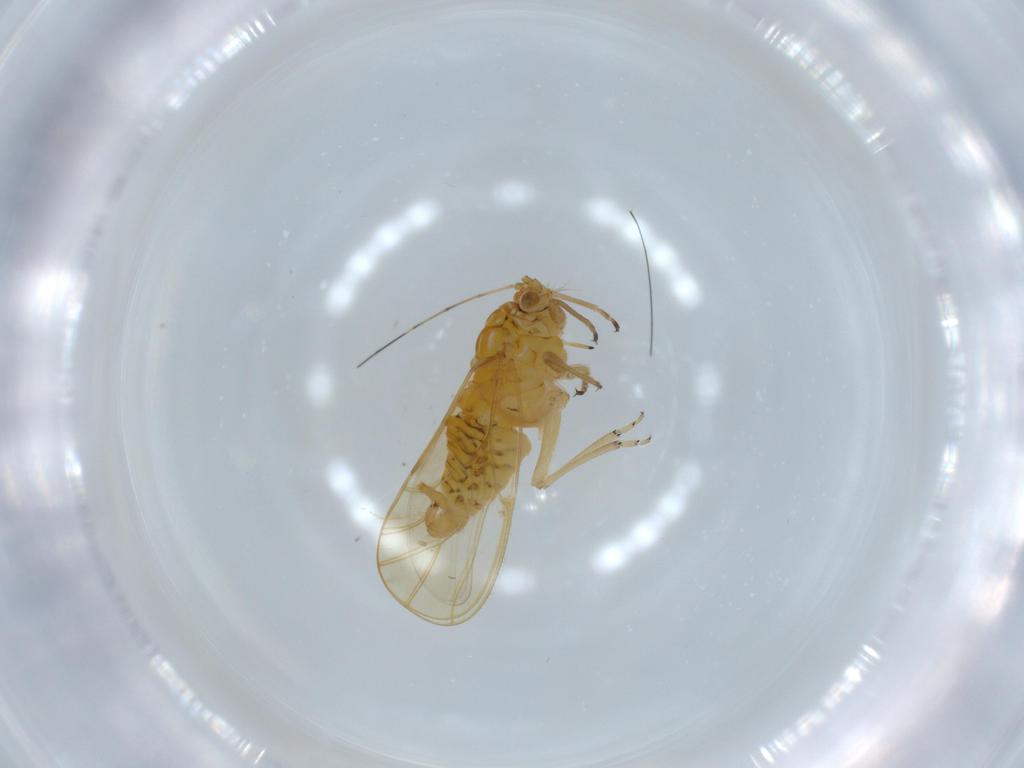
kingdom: Animalia
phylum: Arthropoda
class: Insecta
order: Hemiptera
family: Psyllidae
